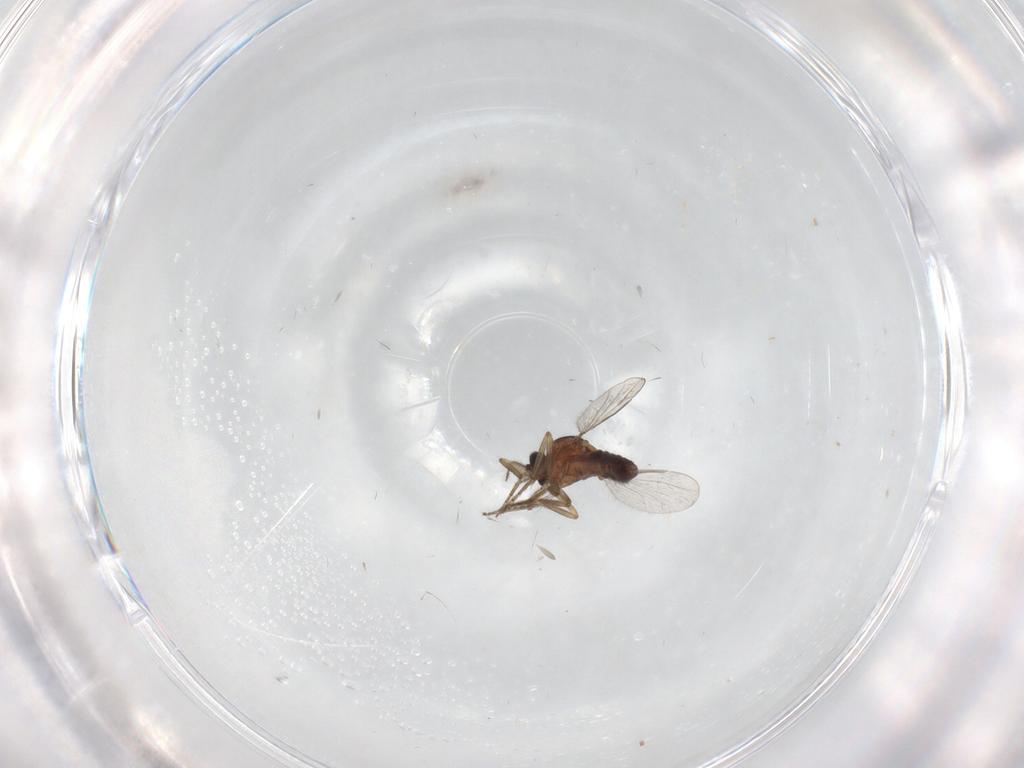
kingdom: Animalia
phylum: Arthropoda
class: Insecta
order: Diptera
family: Ceratopogonidae
